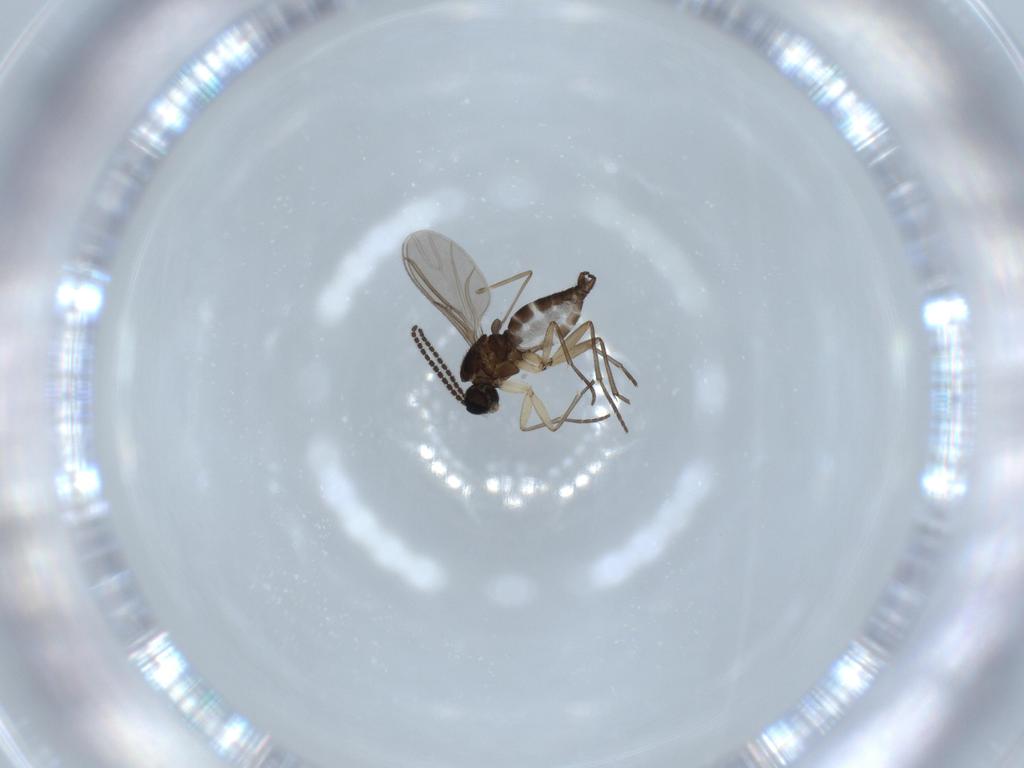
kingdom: Animalia
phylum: Arthropoda
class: Insecta
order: Diptera
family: Sciaridae
